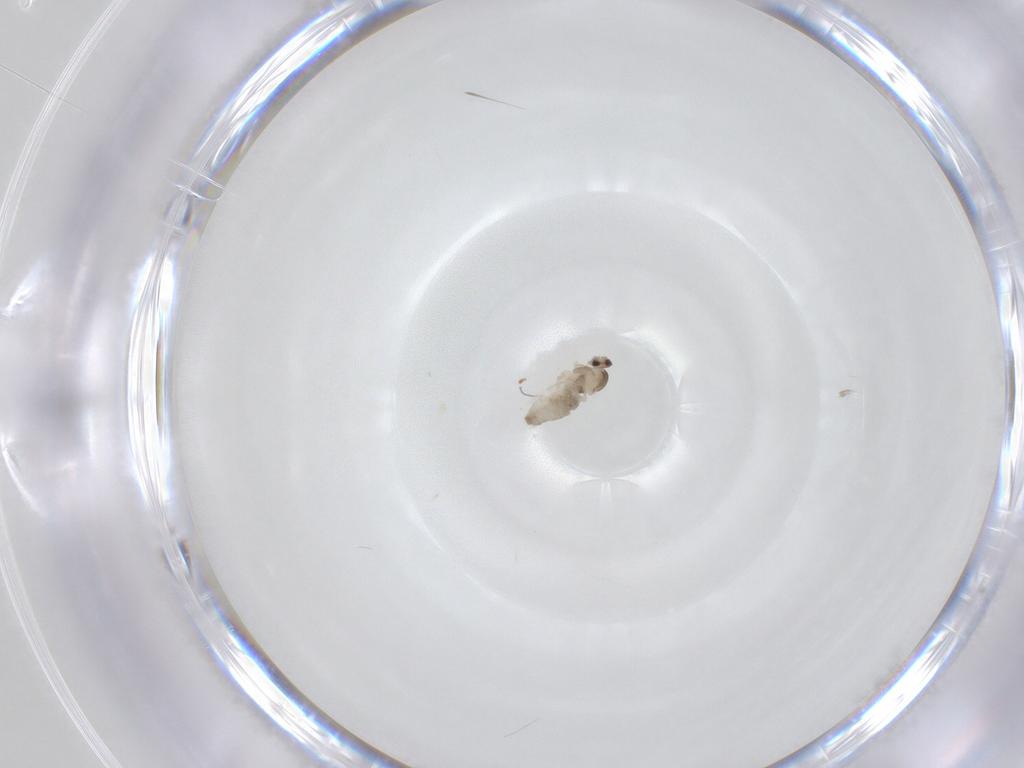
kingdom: Animalia
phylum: Arthropoda
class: Insecta
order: Diptera
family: Cecidomyiidae
